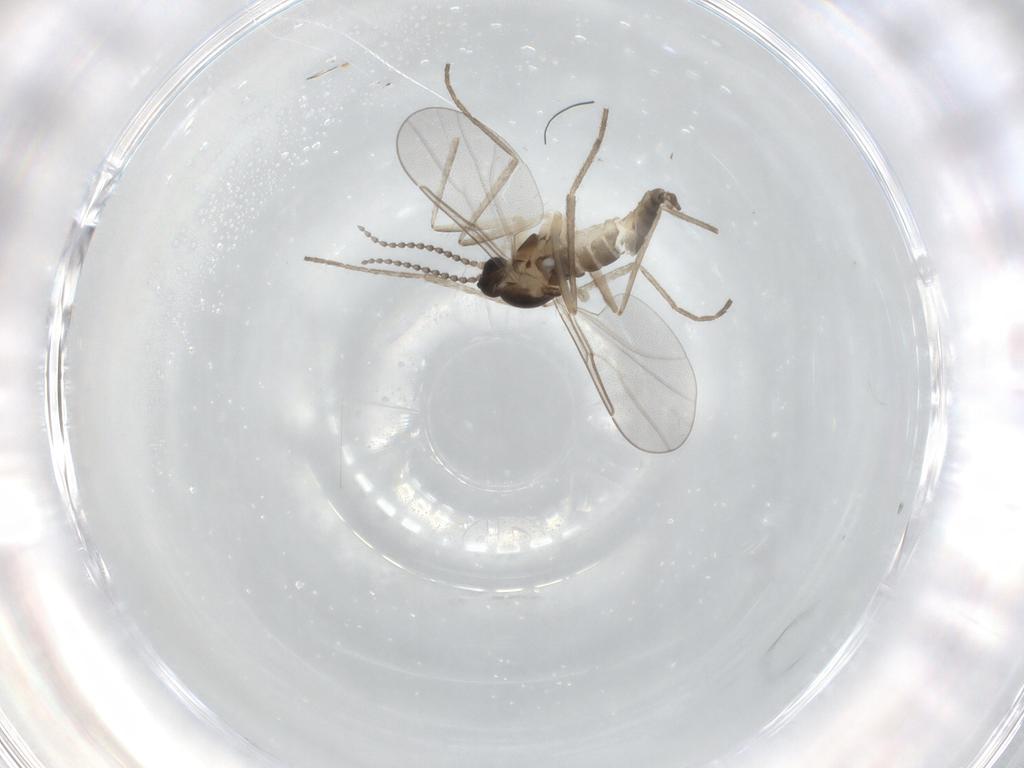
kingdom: Animalia
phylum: Arthropoda
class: Insecta
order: Diptera
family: Cecidomyiidae
